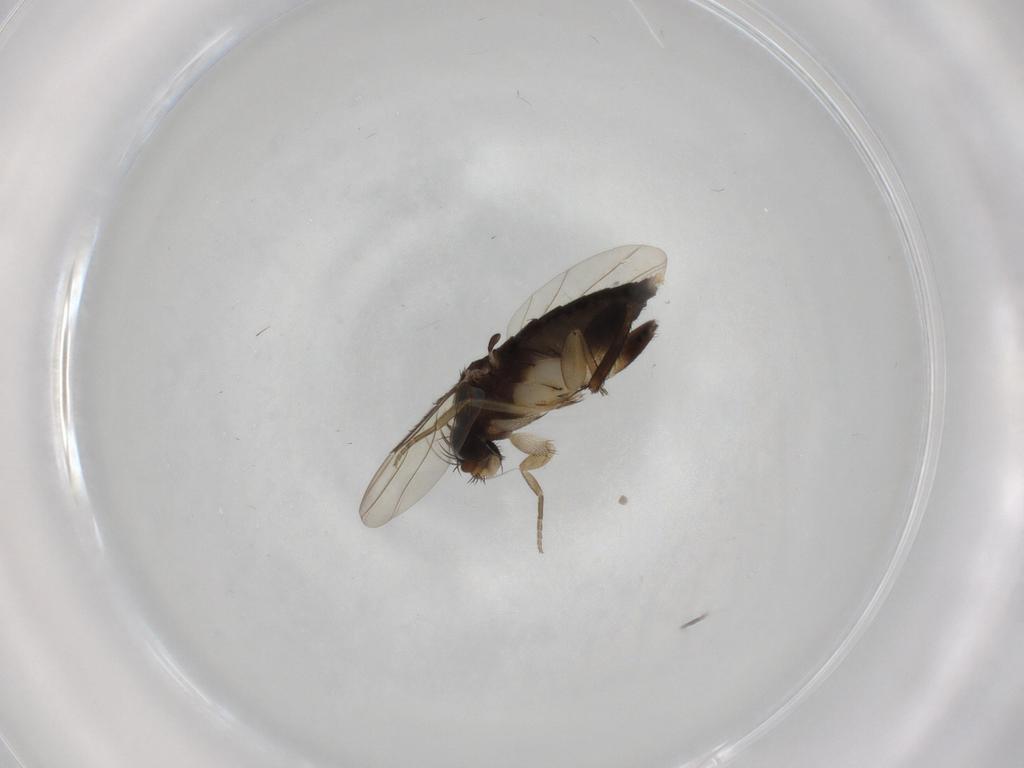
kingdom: Animalia
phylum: Arthropoda
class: Insecta
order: Diptera
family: Phoridae
